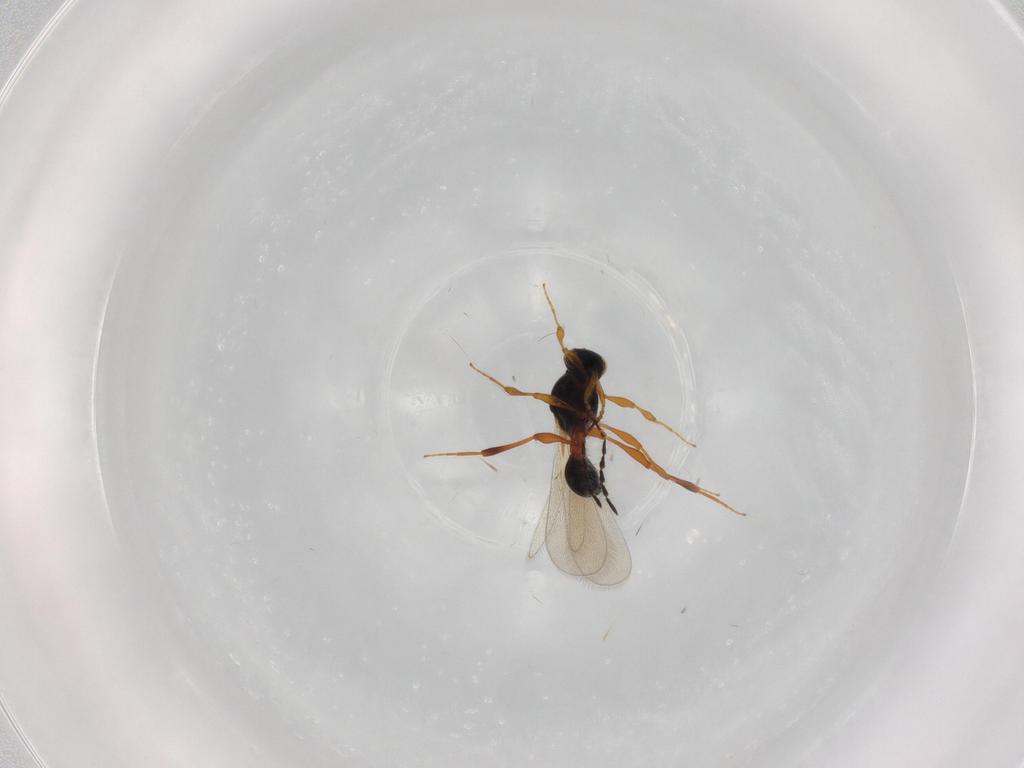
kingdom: Animalia
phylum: Arthropoda
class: Insecta
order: Hymenoptera
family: Platygastridae
